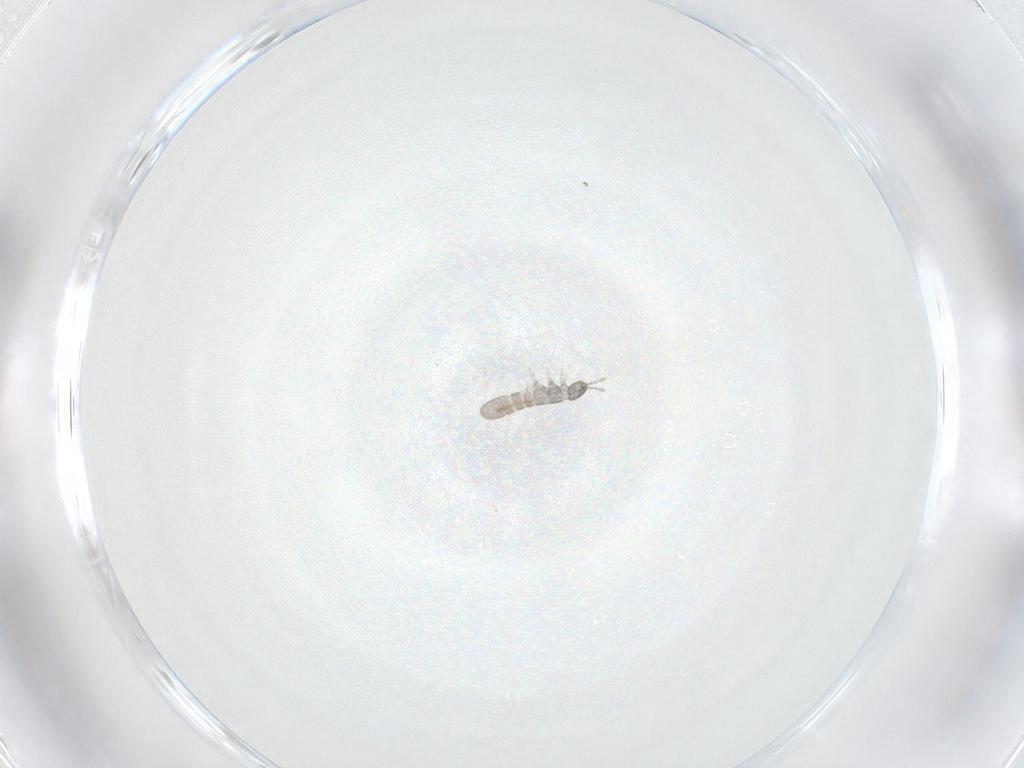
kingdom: Animalia
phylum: Arthropoda
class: Collembola
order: Entomobryomorpha
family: Isotomidae
